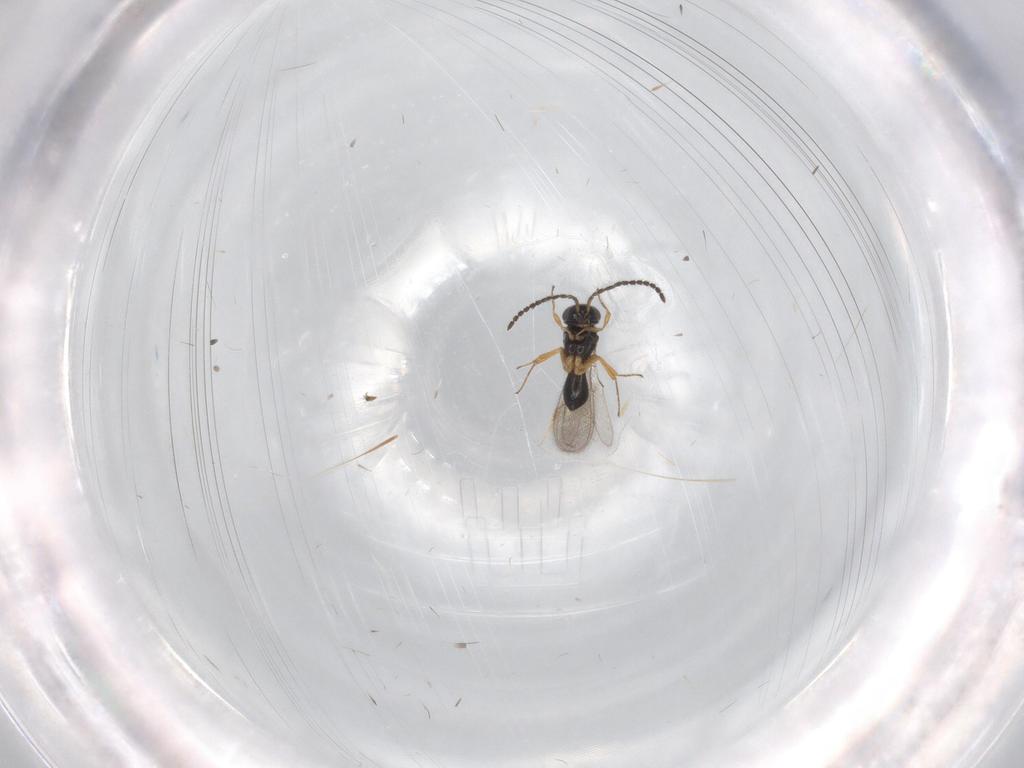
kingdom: Animalia
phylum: Arthropoda
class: Insecta
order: Hymenoptera
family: Scelionidae
